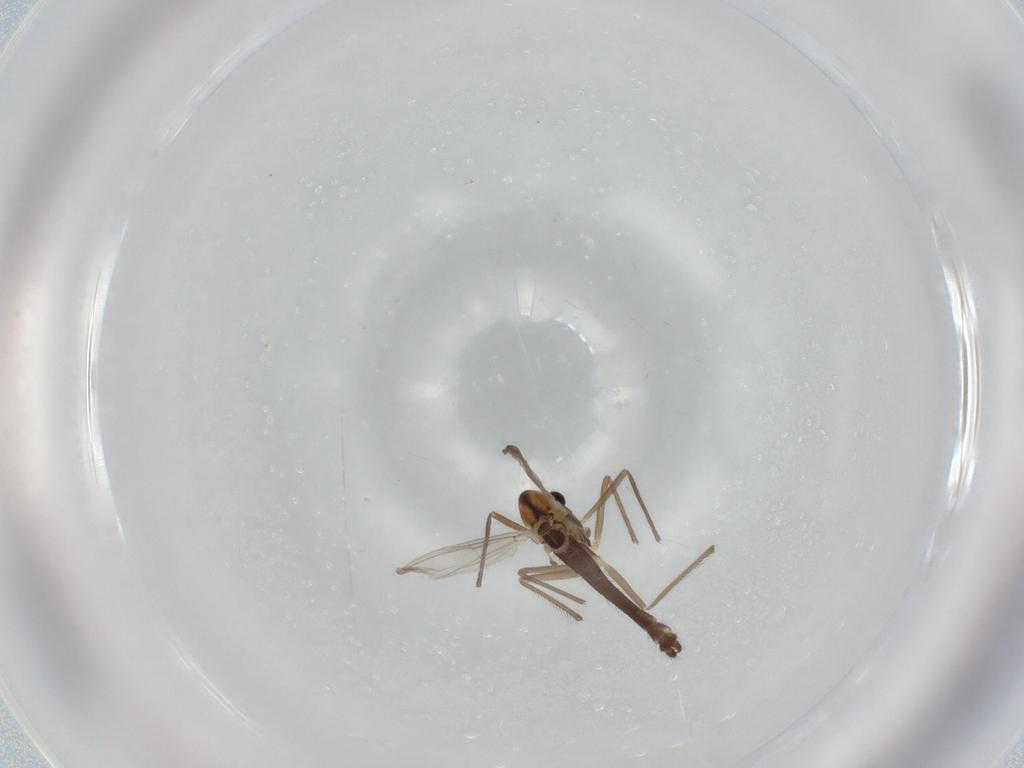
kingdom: Animalia
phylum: Arthropoda
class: Insecta
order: Diptera
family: Chironomidae
